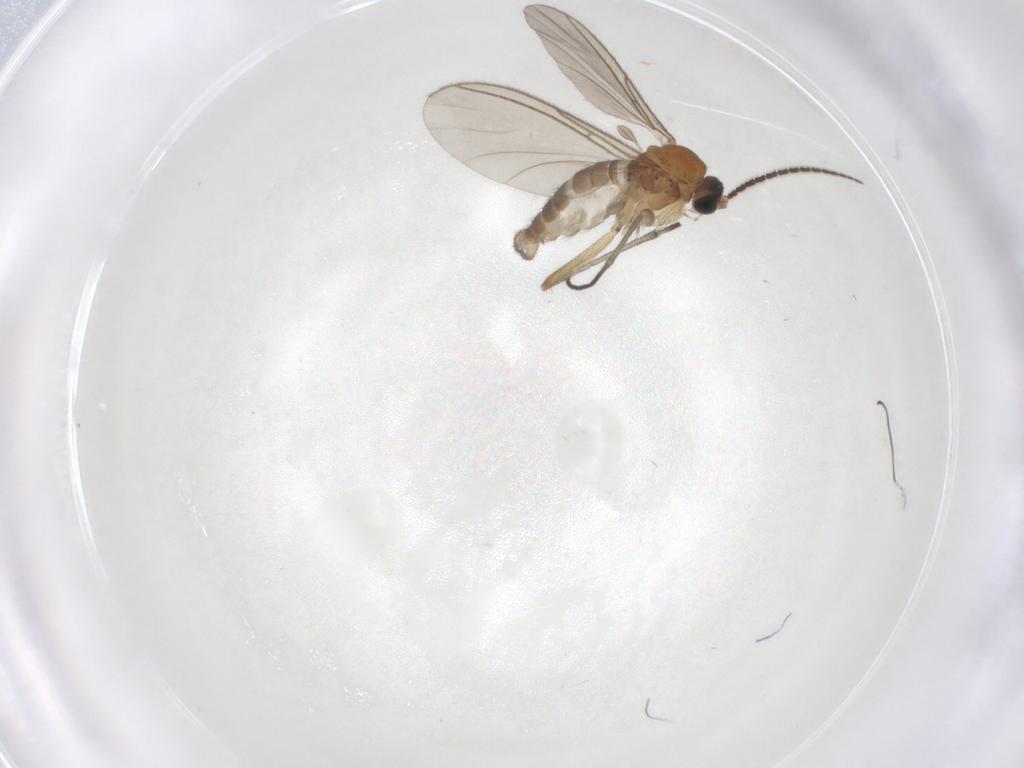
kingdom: Animalia
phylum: Arthropoda
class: Insecta
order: Diptera
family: Sciaridae
